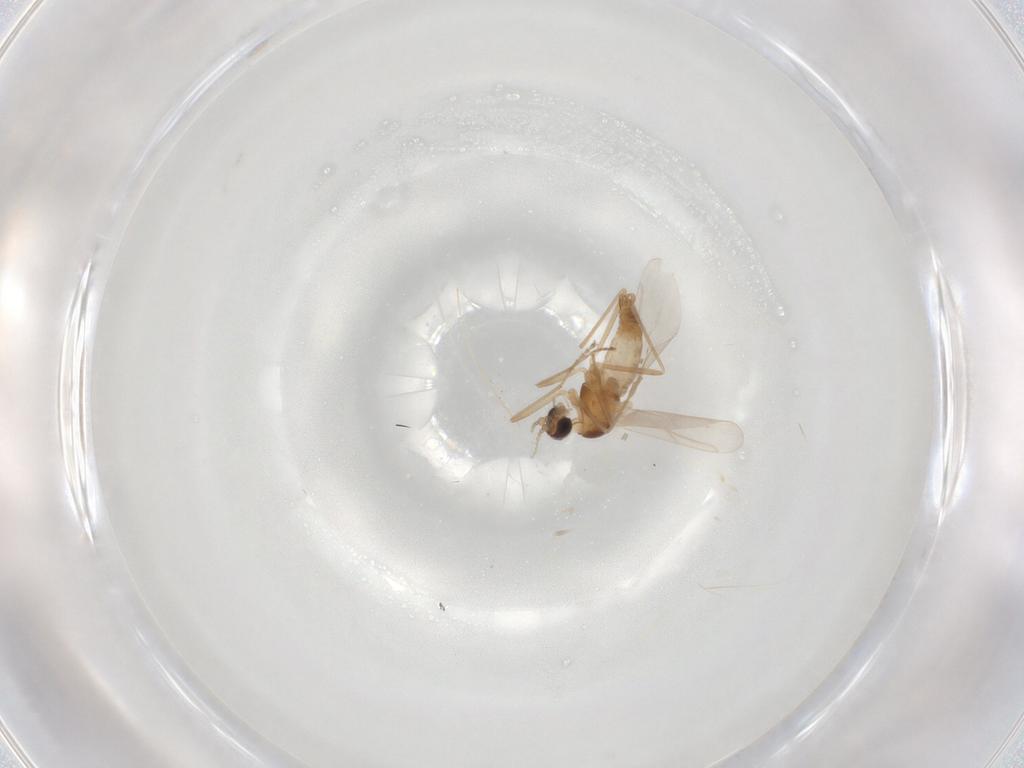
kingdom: Animalia
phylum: Arthropoda
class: Insecta
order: Diptera
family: Cecidomyiidae
